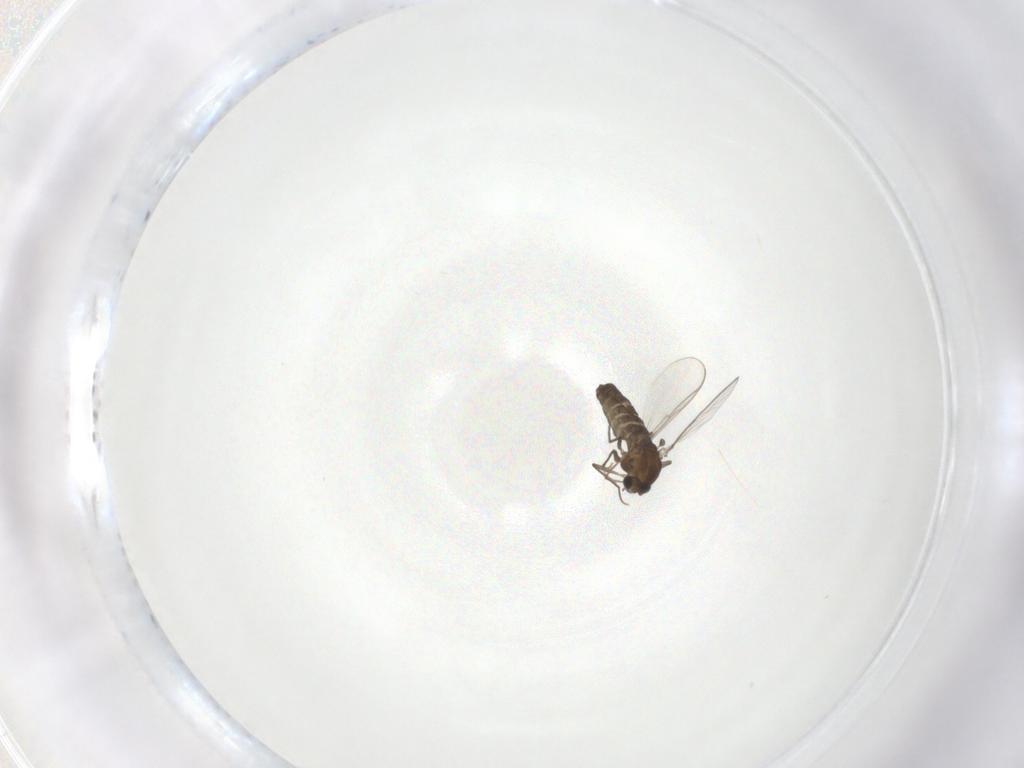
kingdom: Animalia
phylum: Arthropoda
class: Insecta
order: Diptera
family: Chironomidae
